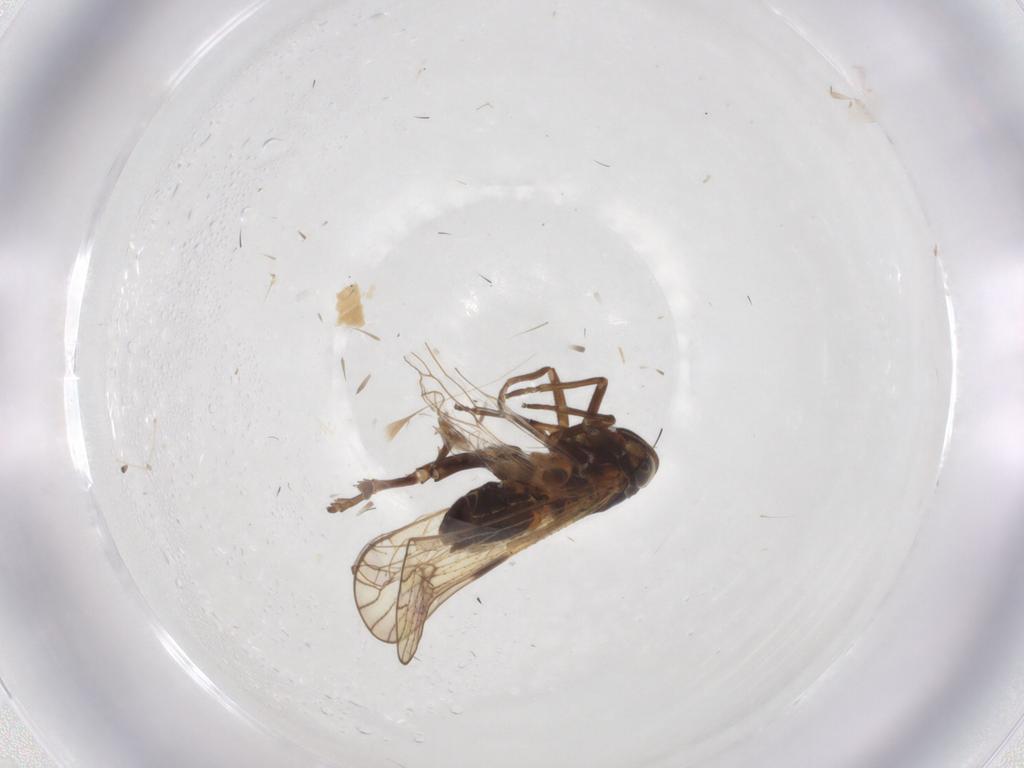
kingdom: Animalia
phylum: Arthropoda
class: Insecta
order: Hemiptera
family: Delphacidae
